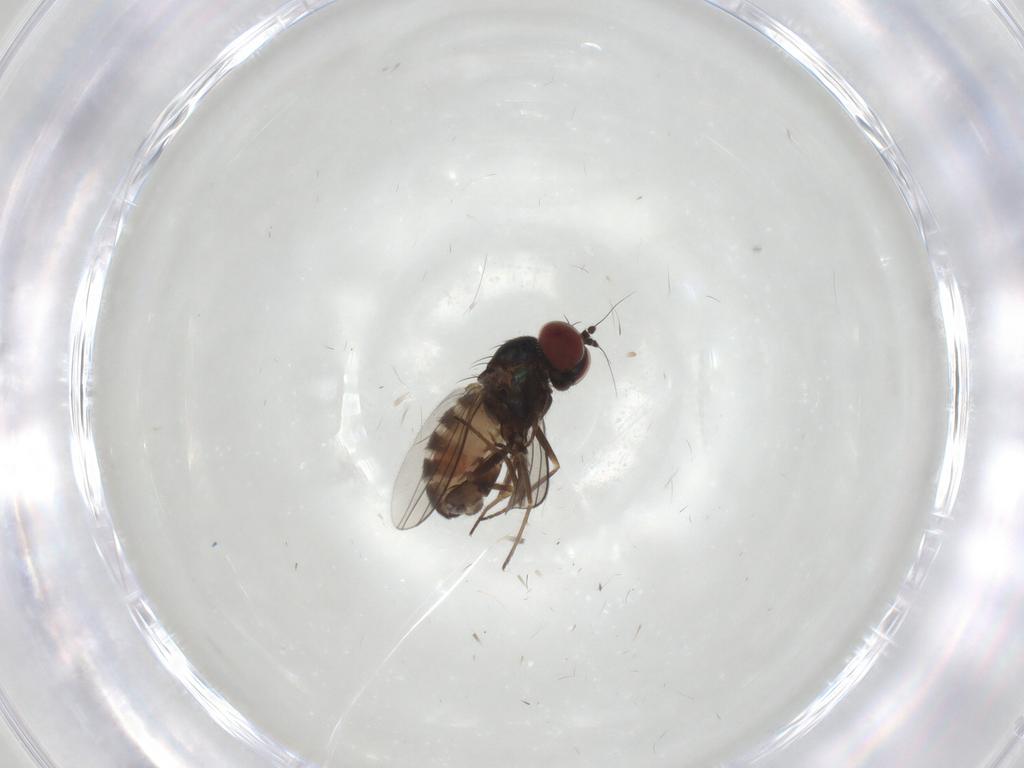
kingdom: Animalia
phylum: Arthropoda
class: Insecta
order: Diptera
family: Dolichopodidae
